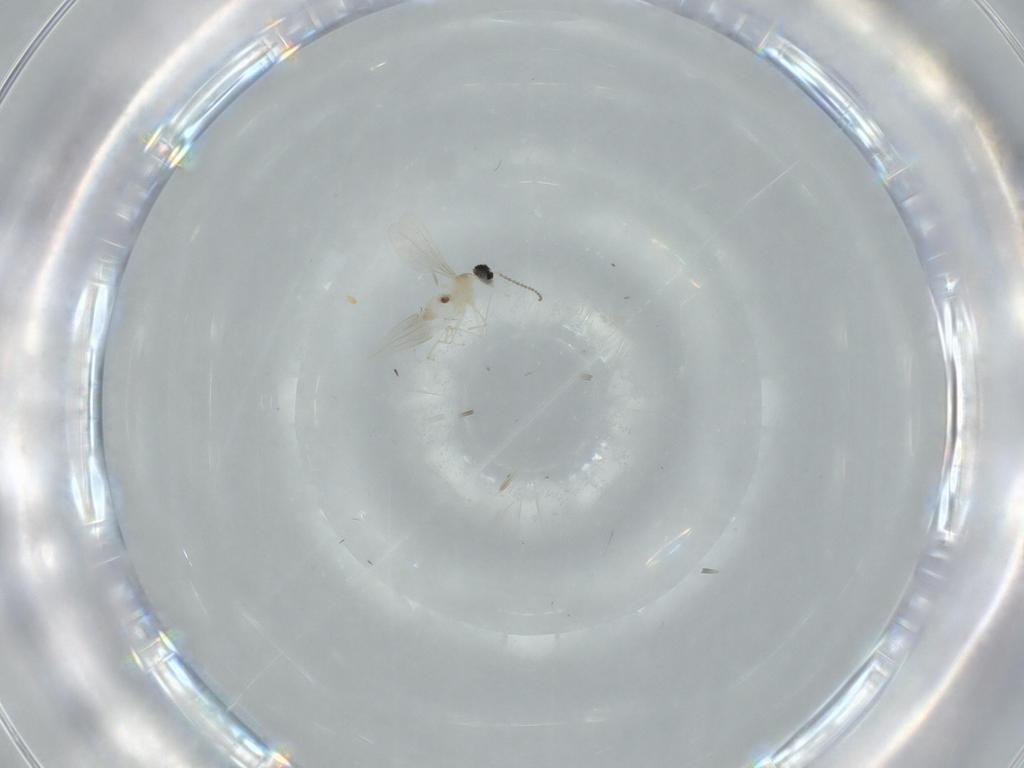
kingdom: Animalia
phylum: Arthropoda
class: Insecta
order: Diptera
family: Cecidomyiidae
